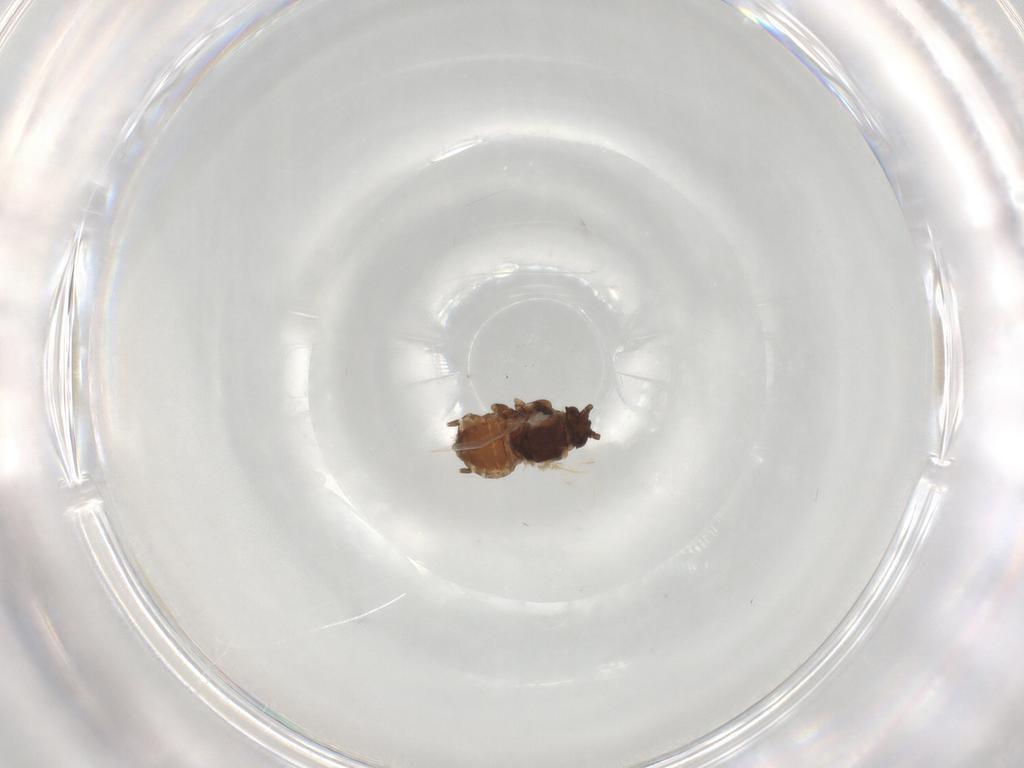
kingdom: Animalia
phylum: Arthropoda
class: Insecta
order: Hemiptera
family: Aphididae
